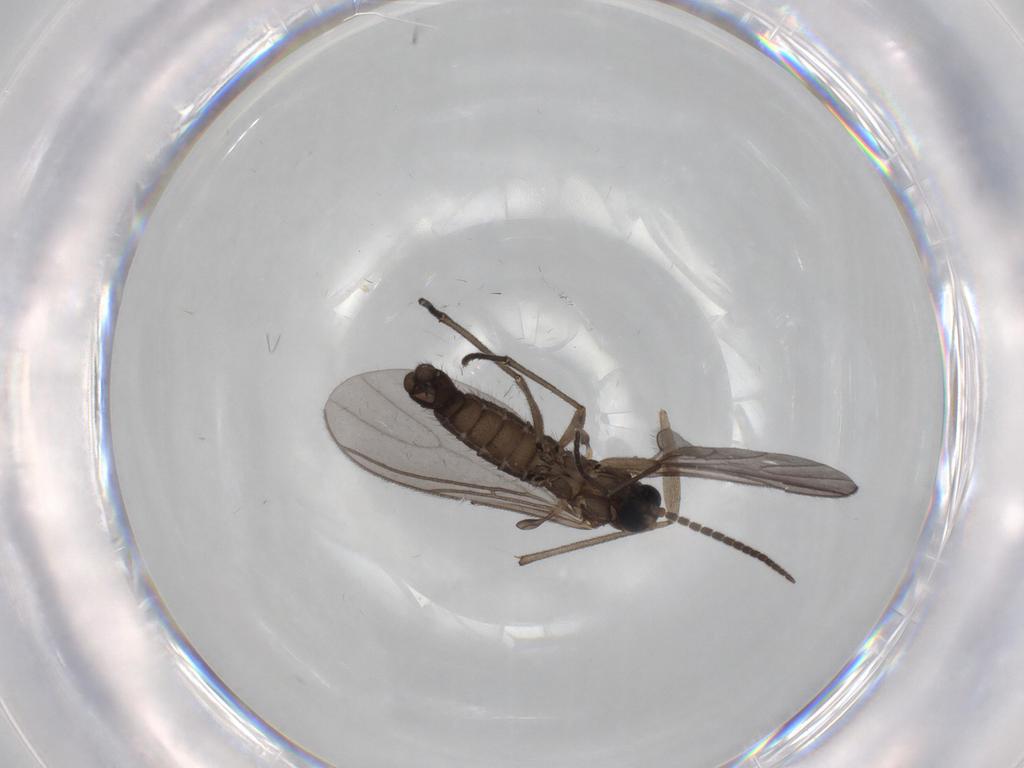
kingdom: Animalia
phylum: Arthropoda
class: Insecta
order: Diptera
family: Sciaridae
